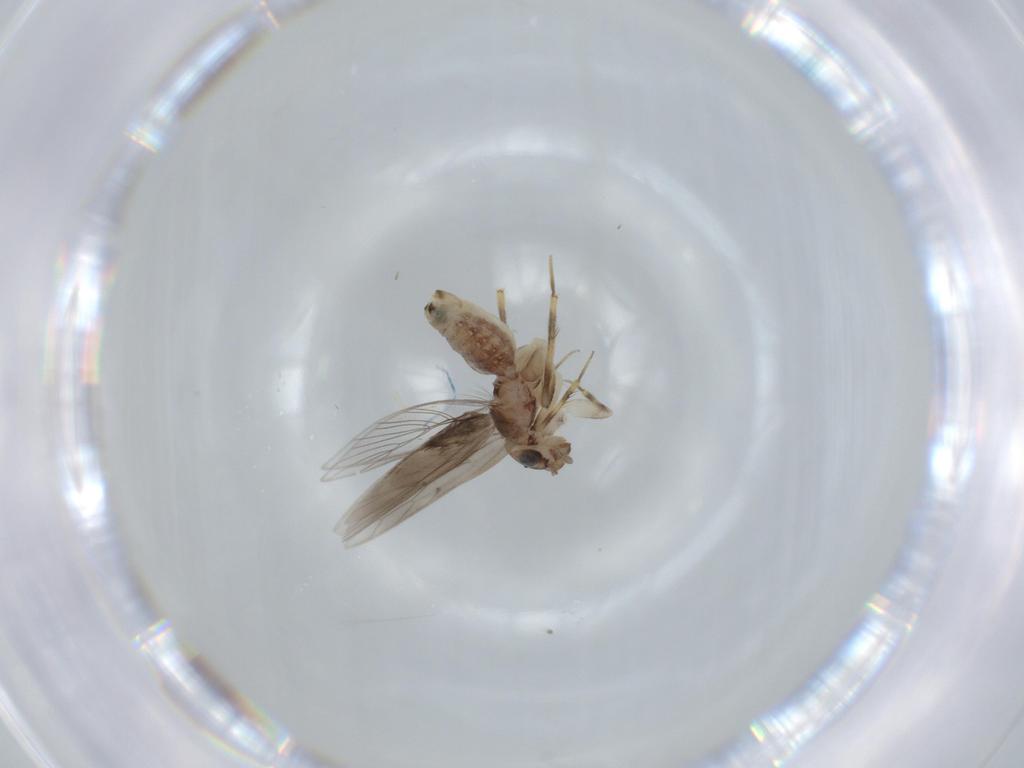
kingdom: Animalia
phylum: Arthropoda
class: Insecta
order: Psocodea
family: Lepidopsocidae
